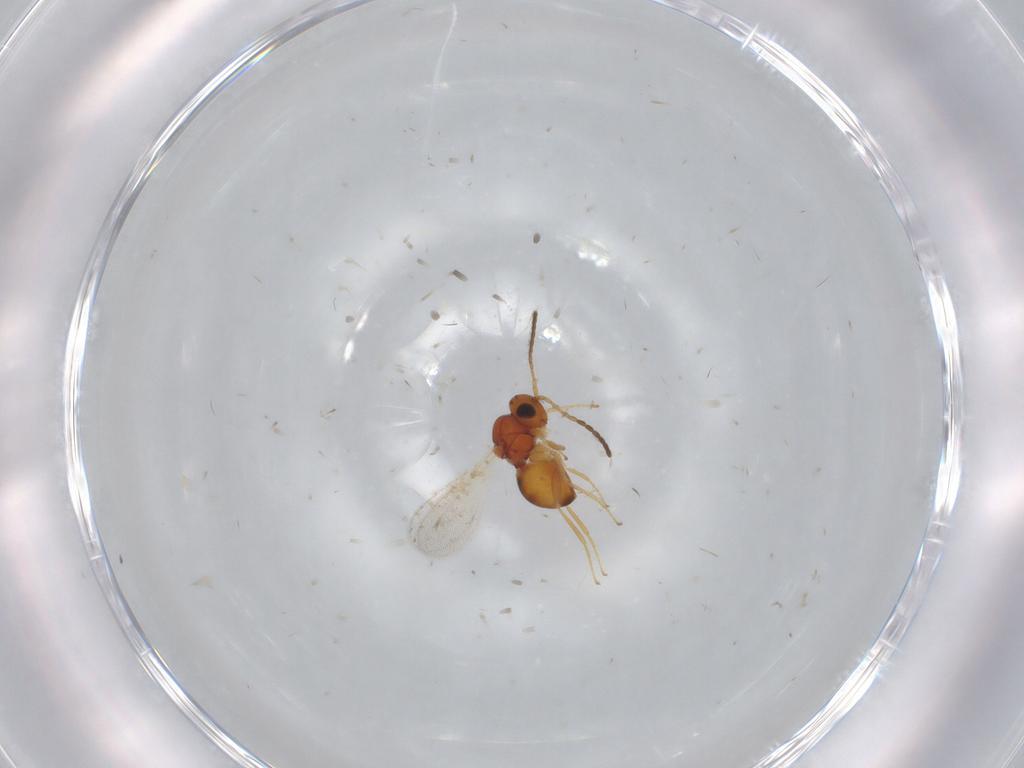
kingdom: Animalia
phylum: Arthropoda
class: Insecta
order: Hymenoptera
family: Figitidae
